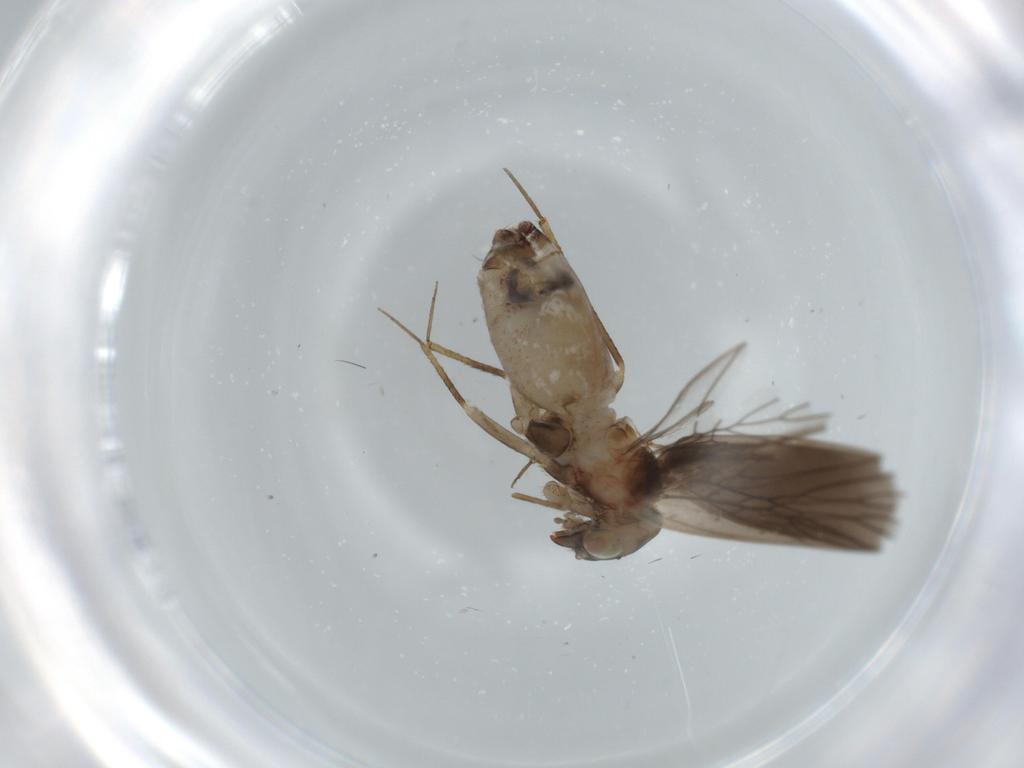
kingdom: Animalia
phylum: Arthropoda
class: Insecta
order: Psocodea
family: Lepidopsocidae
